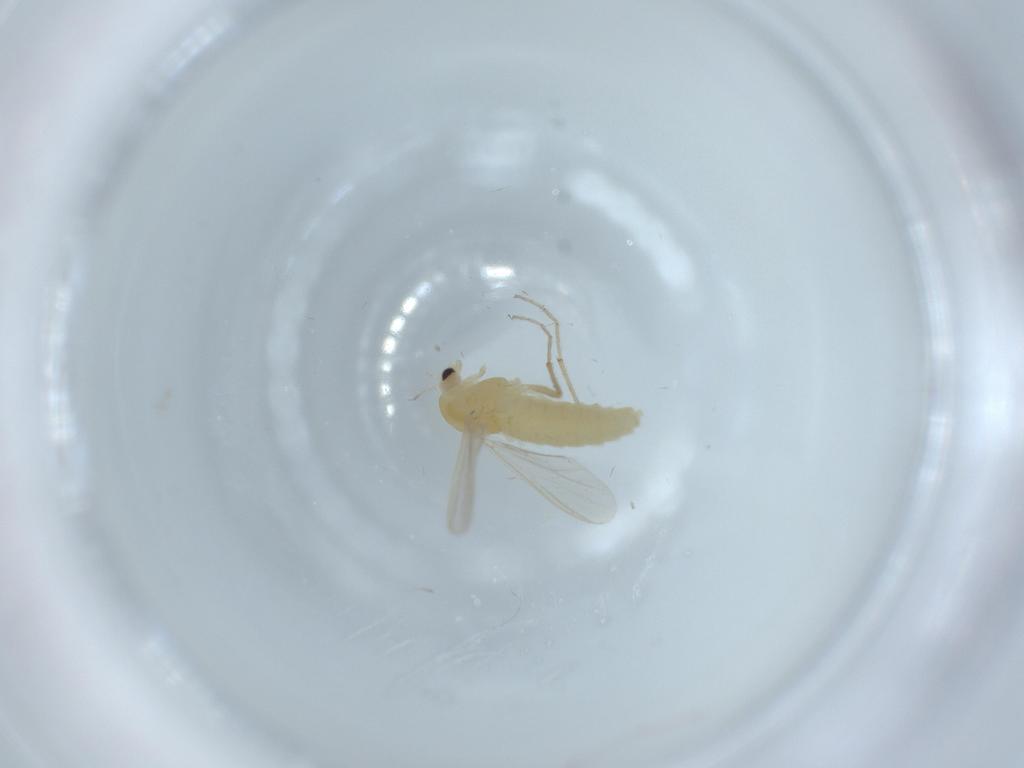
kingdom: Animalia
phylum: Arthropoda
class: Insecta
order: Diptera
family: Chironomidae
